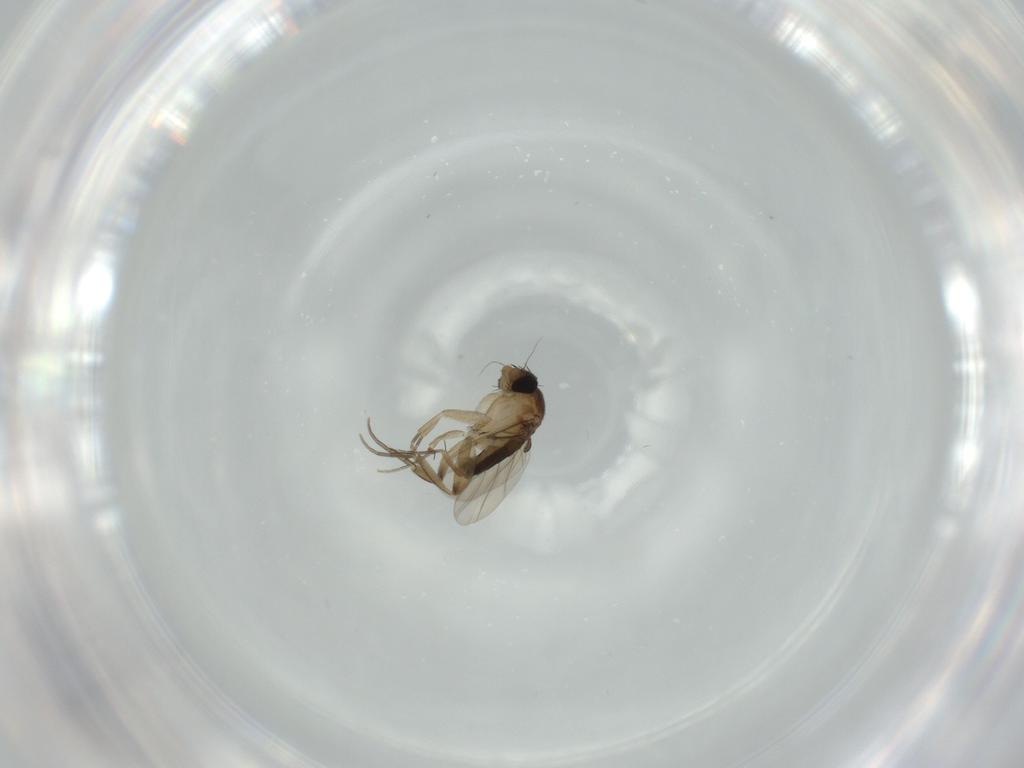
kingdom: Animalia
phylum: Arthropoda
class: Insecta
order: Diptera
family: Phoridae
